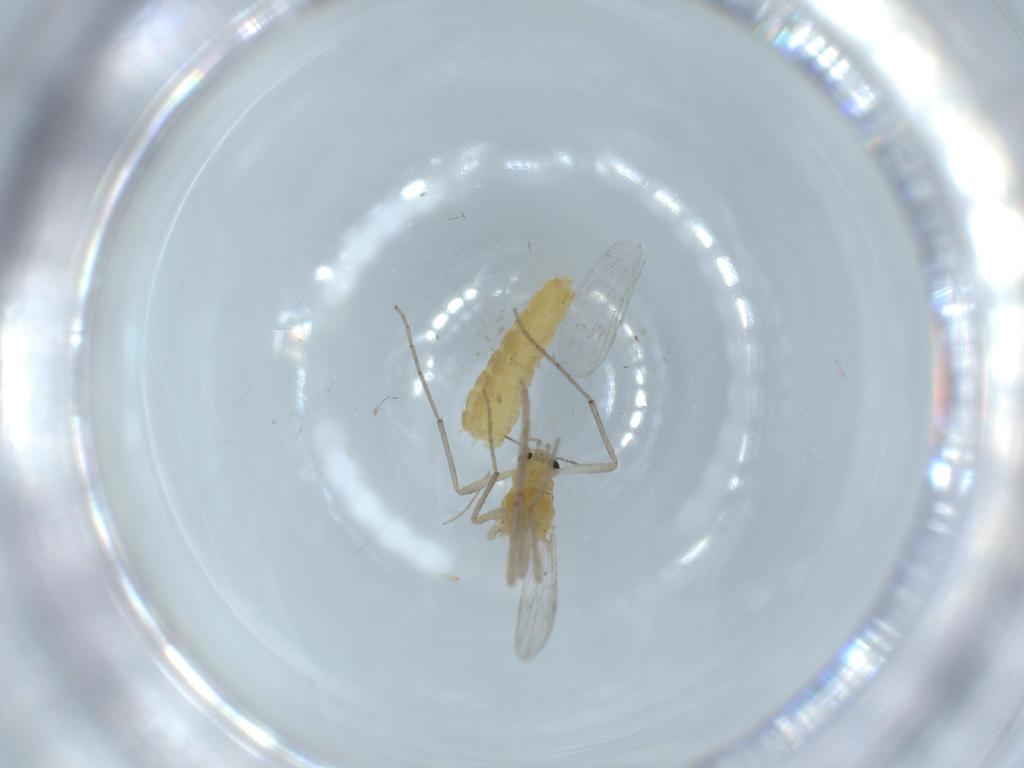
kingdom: Animalia
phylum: Arthropoda
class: Insecta
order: Diptera
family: Chironomidae
